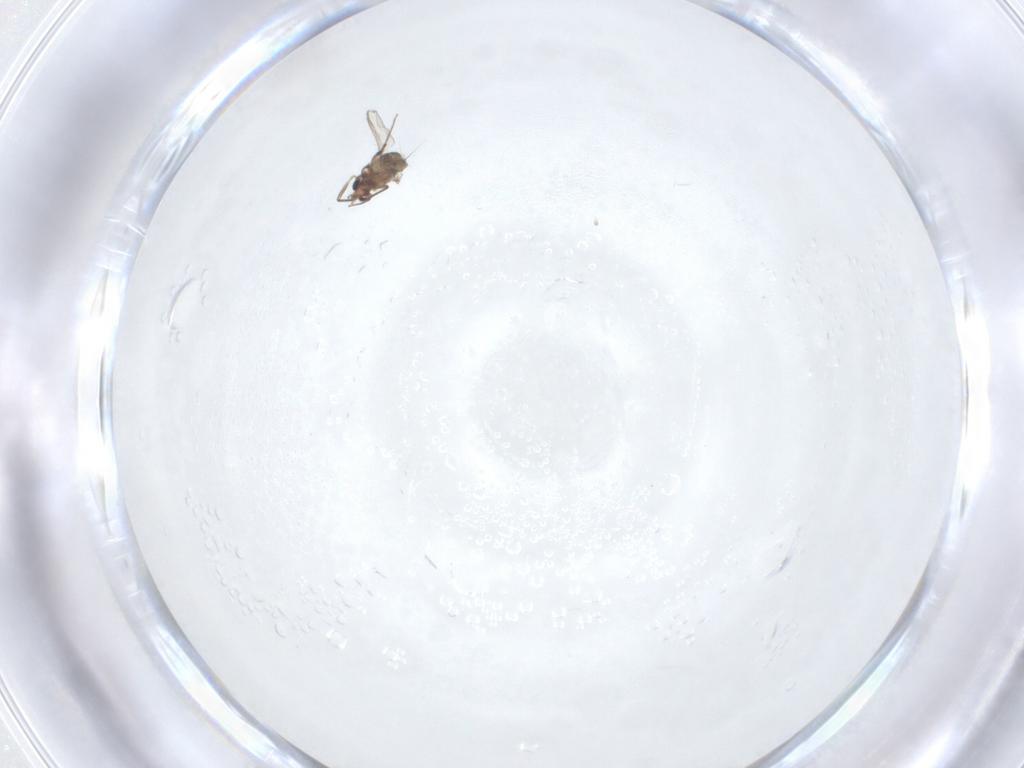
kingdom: Animalia
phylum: Arthropoda
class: Insecta
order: Diptera
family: Chironomidae
